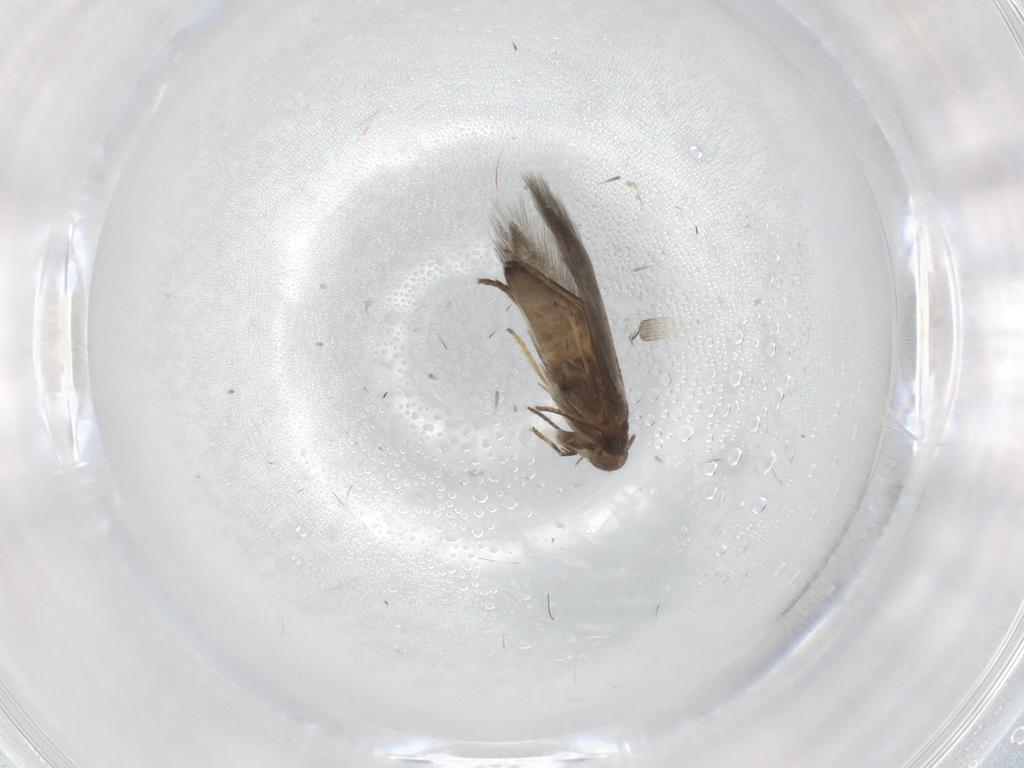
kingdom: Animalia
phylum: Arthropoda
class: Insecta
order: Lepidoptera
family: Heliozelidae
